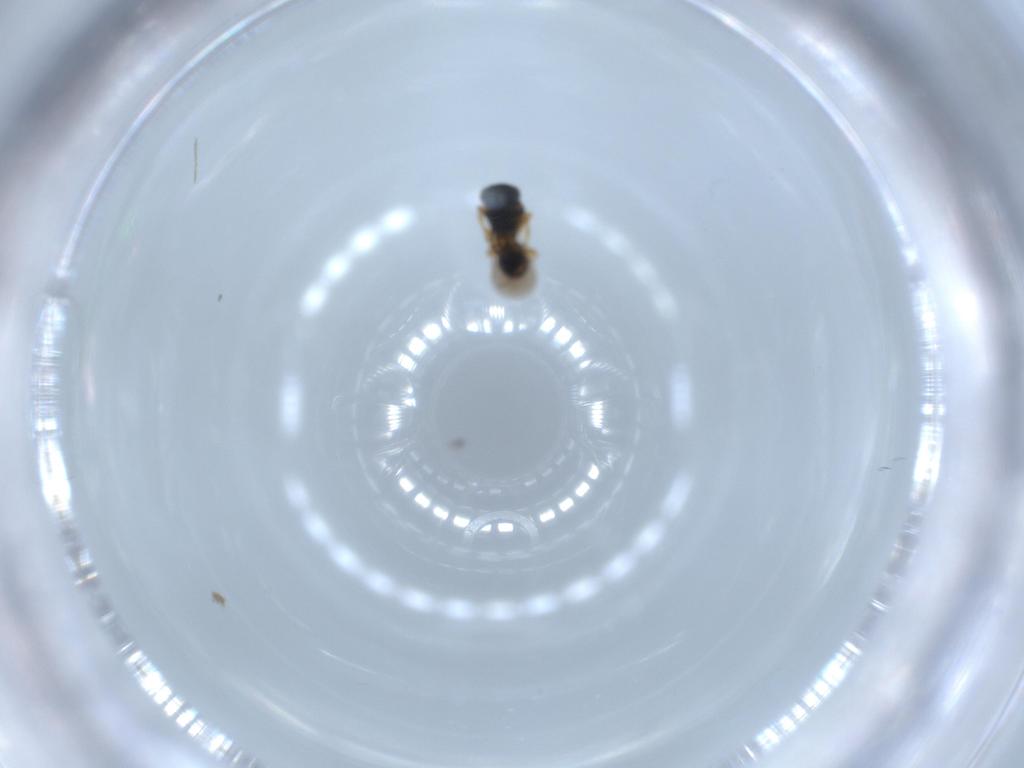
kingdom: Animalia
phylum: Arthropoda
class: Insecta
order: Hymenoptera
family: Platygastridae
